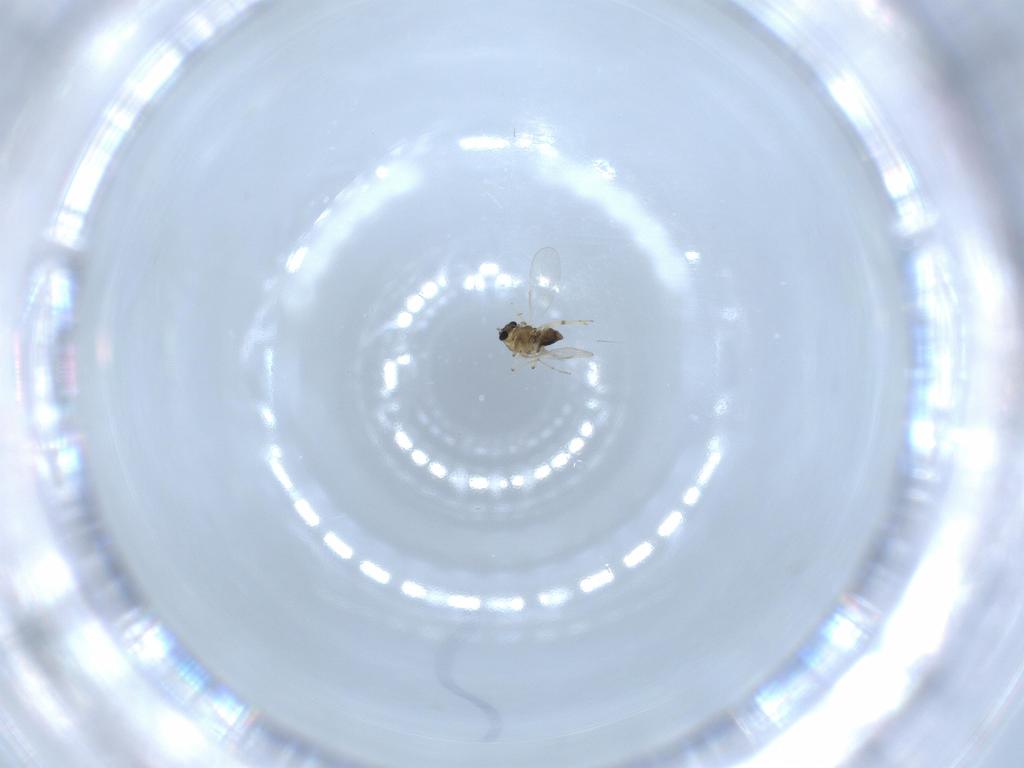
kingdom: Animalia
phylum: Arthropoda
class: Insecta
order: Diptera
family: Chironomidae
